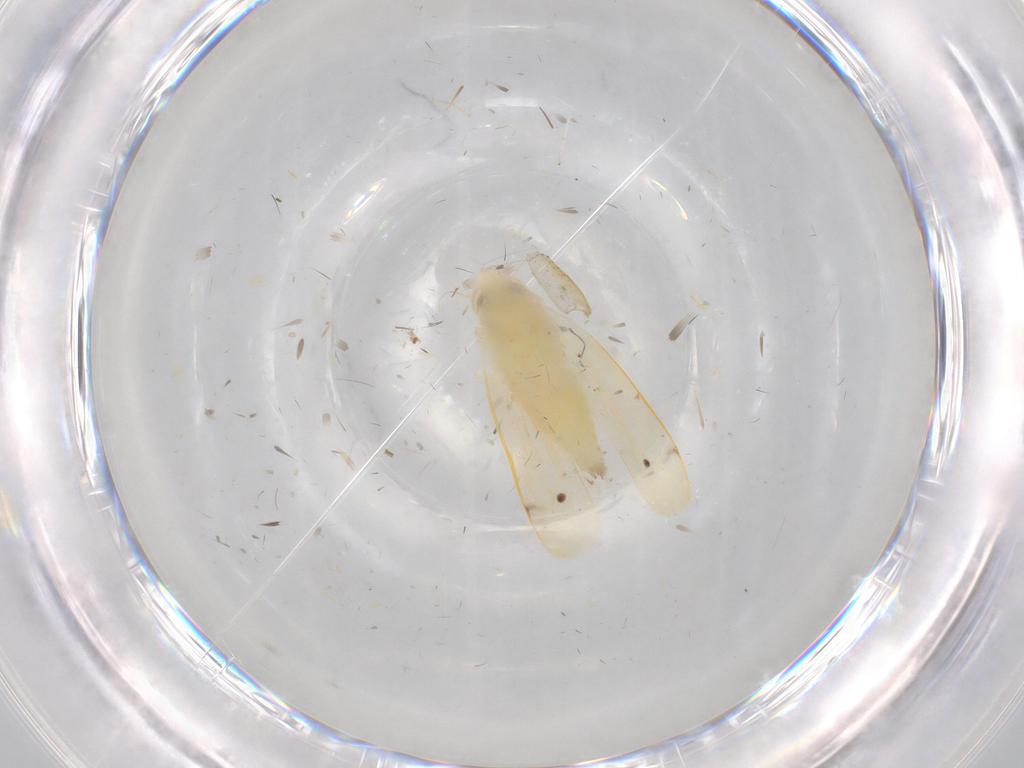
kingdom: Animalia
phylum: Arthropoda
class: Insecta
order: Hemiptera
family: Cicadellidae
